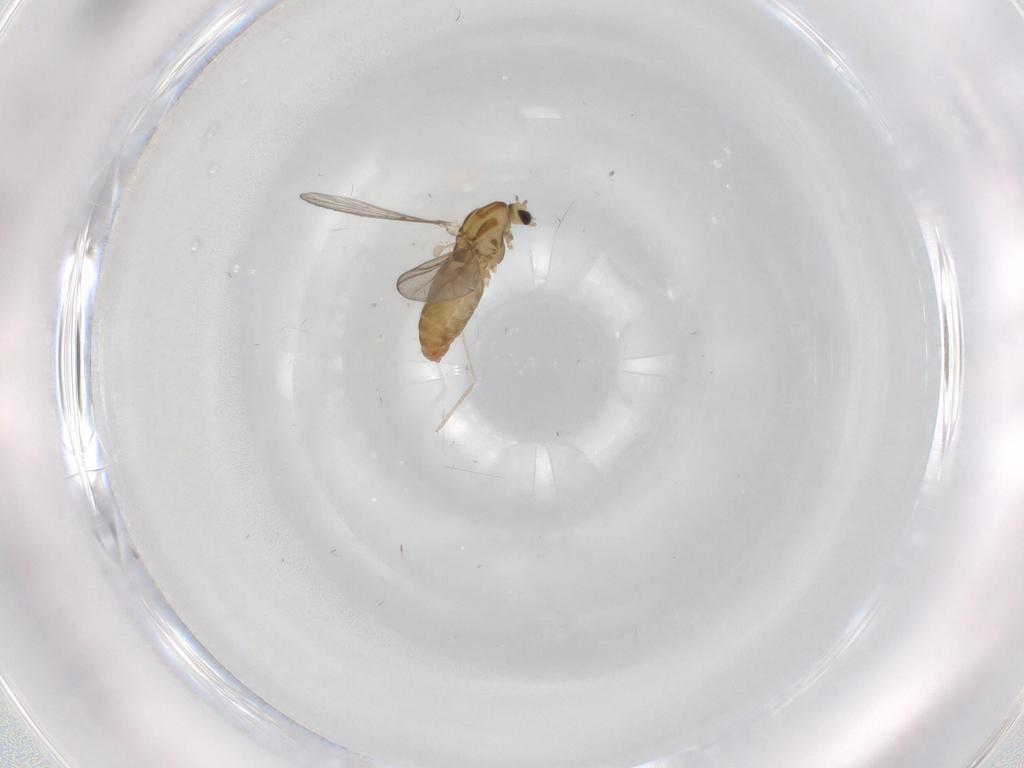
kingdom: Animalia
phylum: Arthropoda
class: Insecta
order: Diptera
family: Chironomidae
